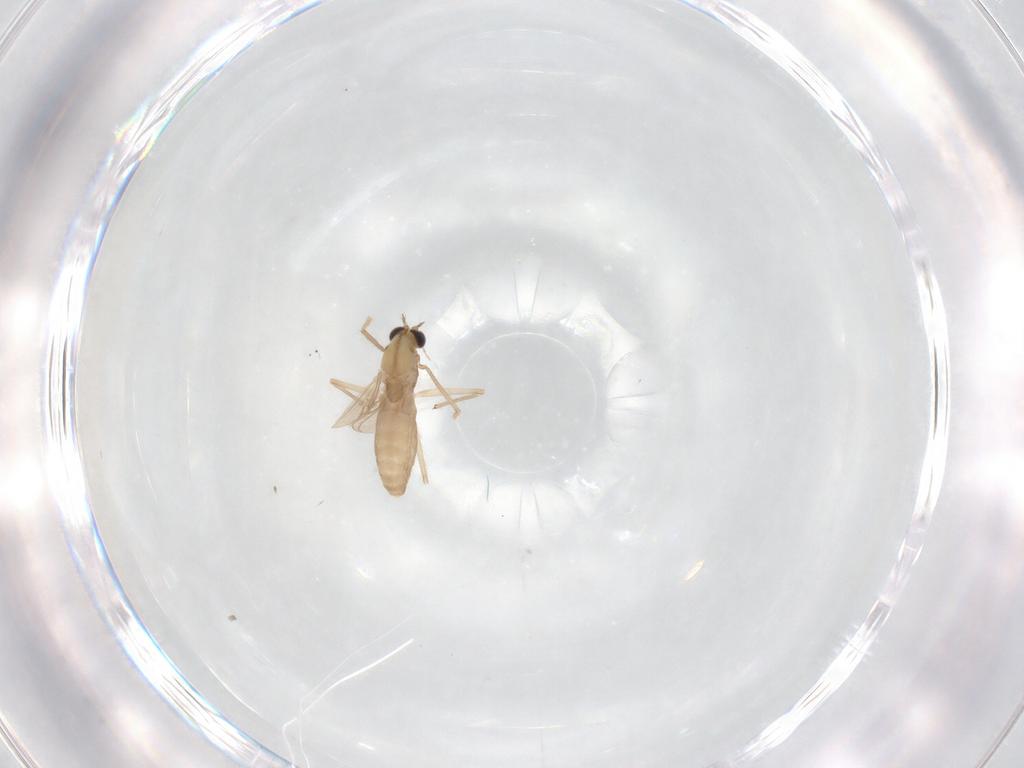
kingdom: Animalia
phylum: Arthropoda
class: Insecta
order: Diptera
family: Chironomidae
